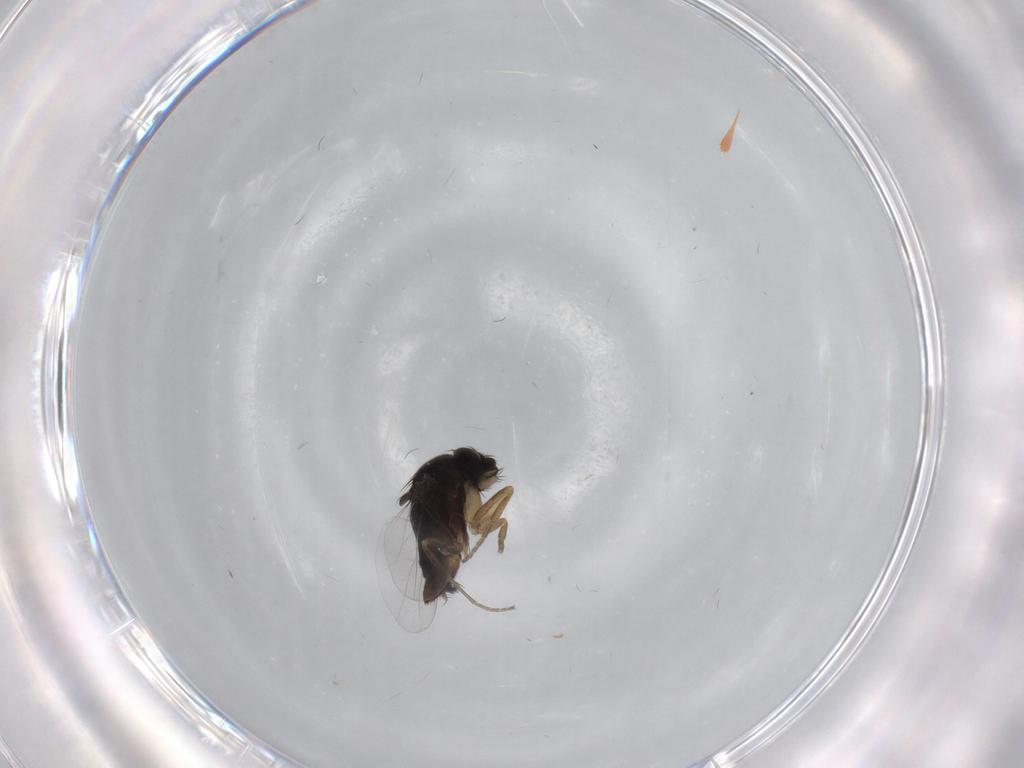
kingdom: Animalia
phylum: Arthropoda
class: Insecta
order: Diptera
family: Phoridae
